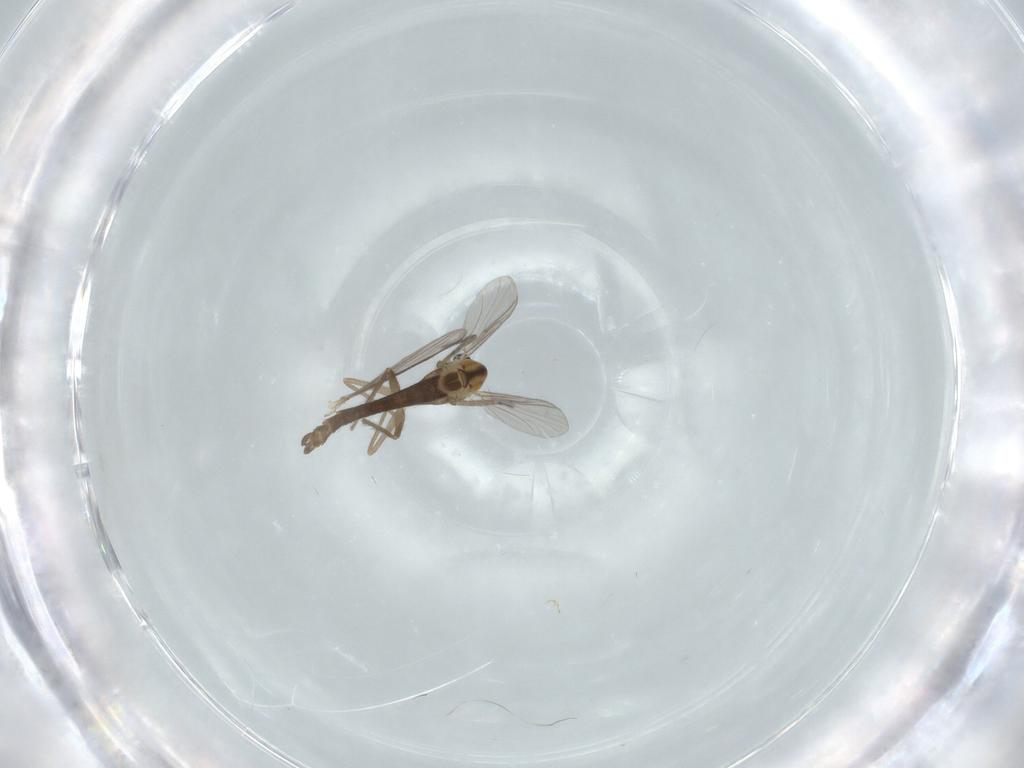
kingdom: Animalia
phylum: Arthropoda
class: Insecta
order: Diptera
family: Chironomidae
